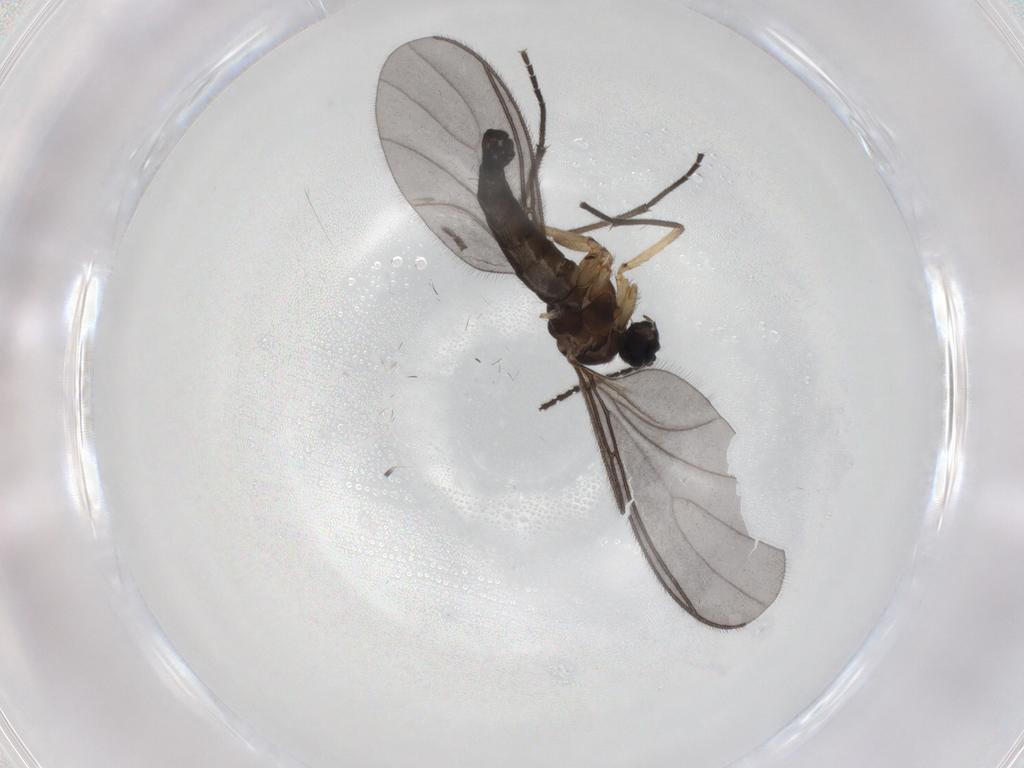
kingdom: Animalia
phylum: Arthropoda
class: Insecta
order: Diptera
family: Sciaridae
